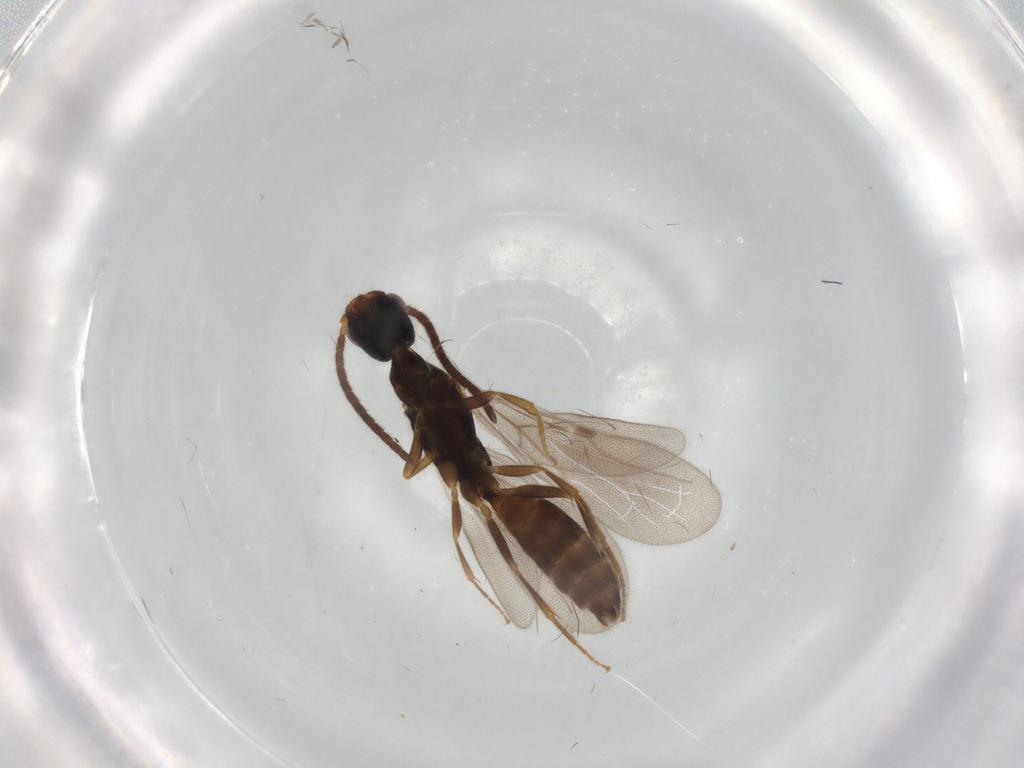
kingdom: Animalia
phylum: Arthropoda
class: Insecta
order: Hymenoptera
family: Bethylidae
